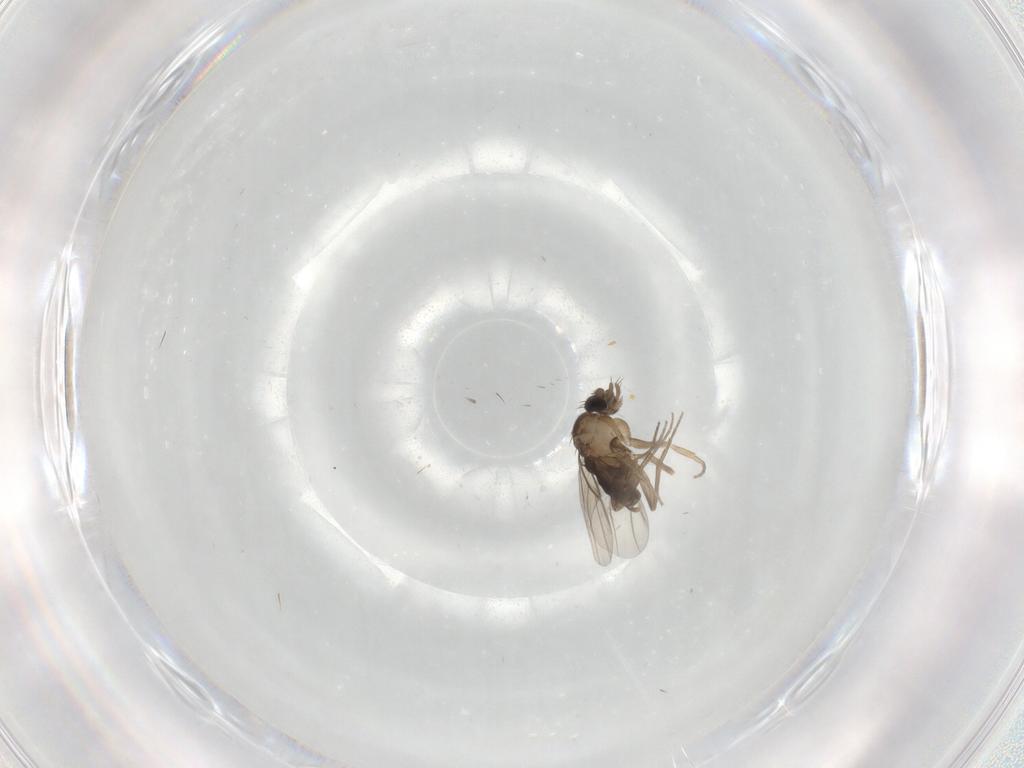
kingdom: Animalia
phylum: Arthropoda
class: Insecta
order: Diptera
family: Phoridae
